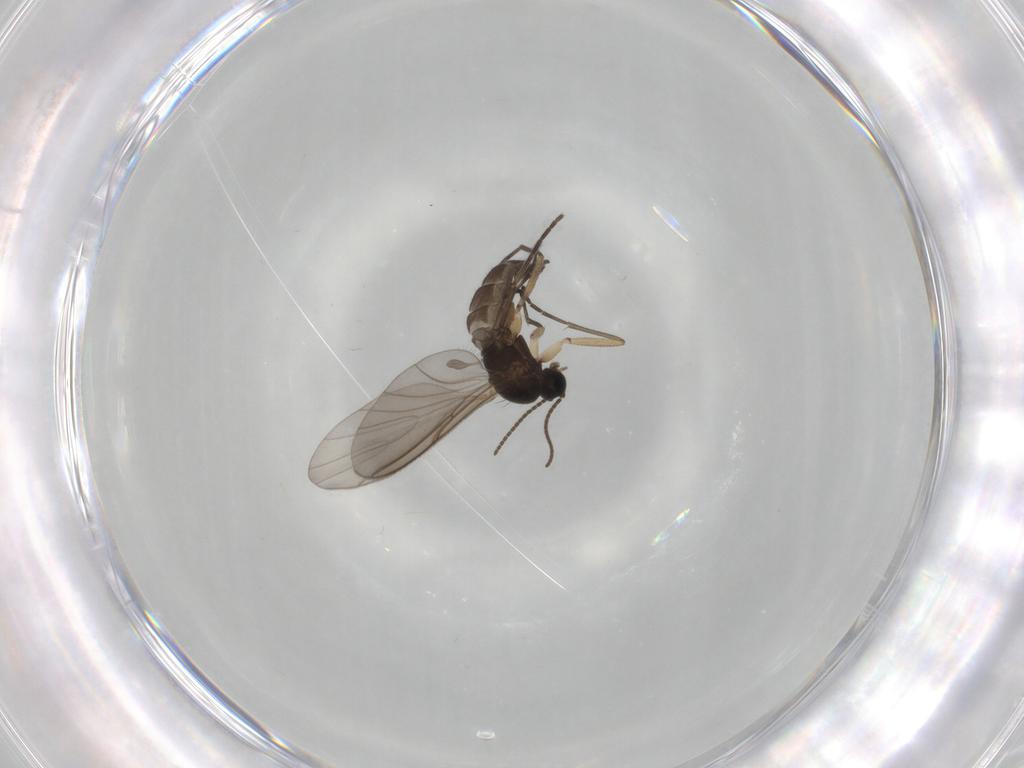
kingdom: Animalia
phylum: Arthropoda
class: Insecta
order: Diptera
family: Sciaridae
